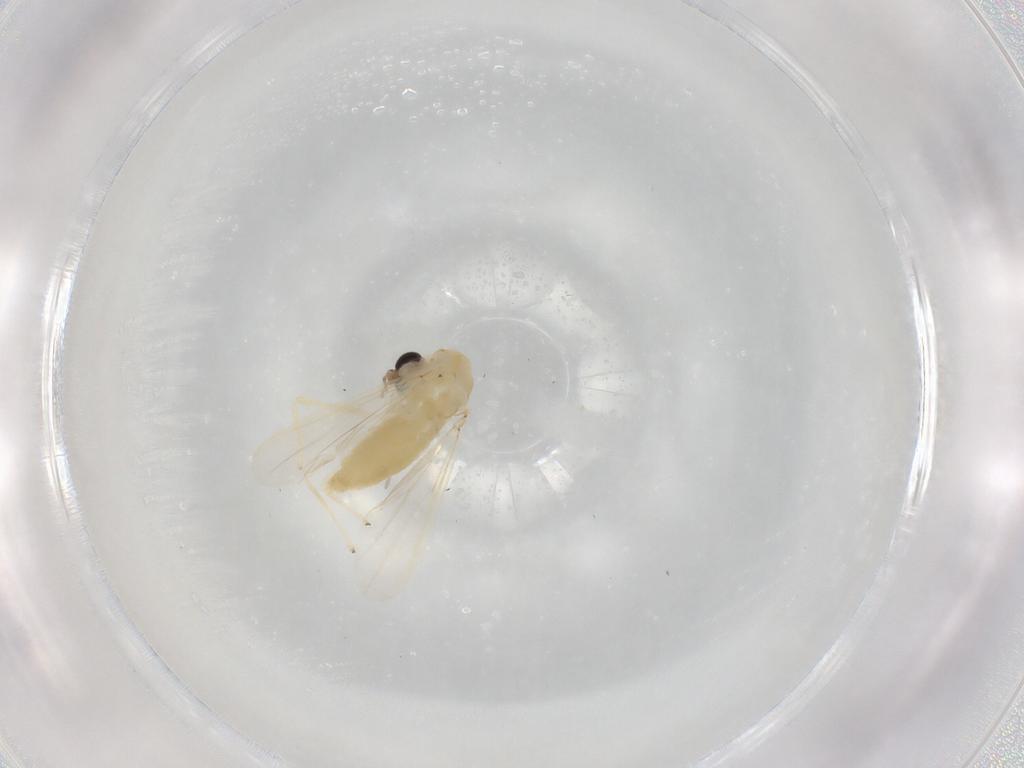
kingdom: Animalia
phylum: Arthropoda
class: Insecta
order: Diptera
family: Chironomidae
